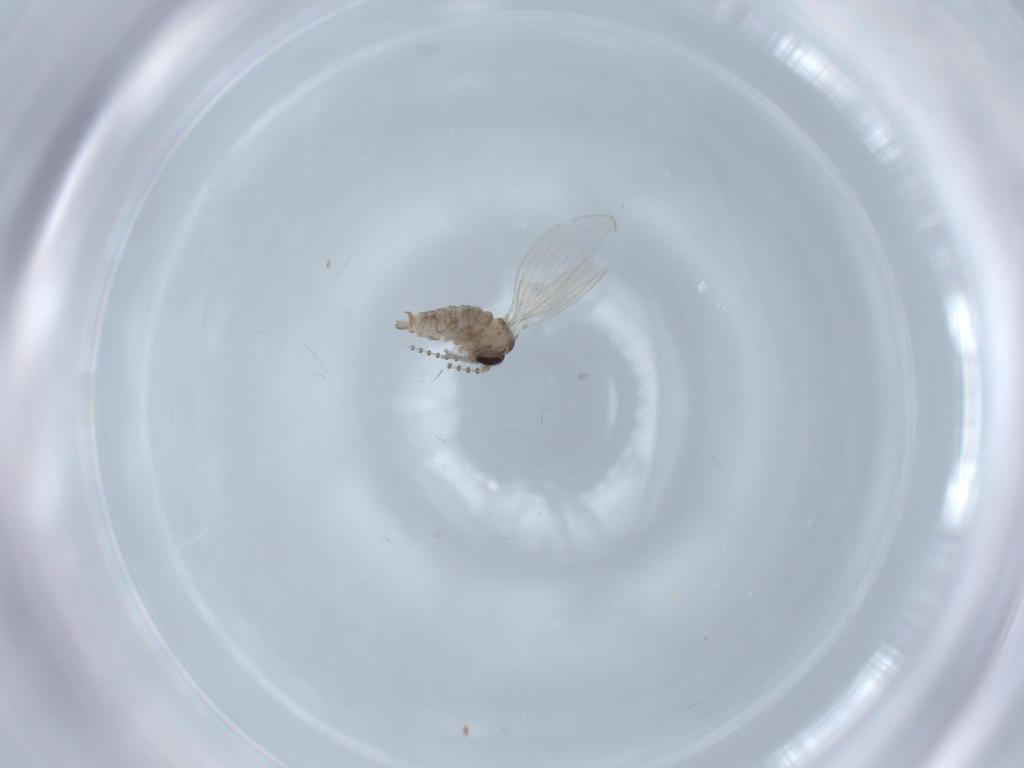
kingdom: Animalia
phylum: Arthropoda
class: Insecta
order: Diptera
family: Psychodidae
